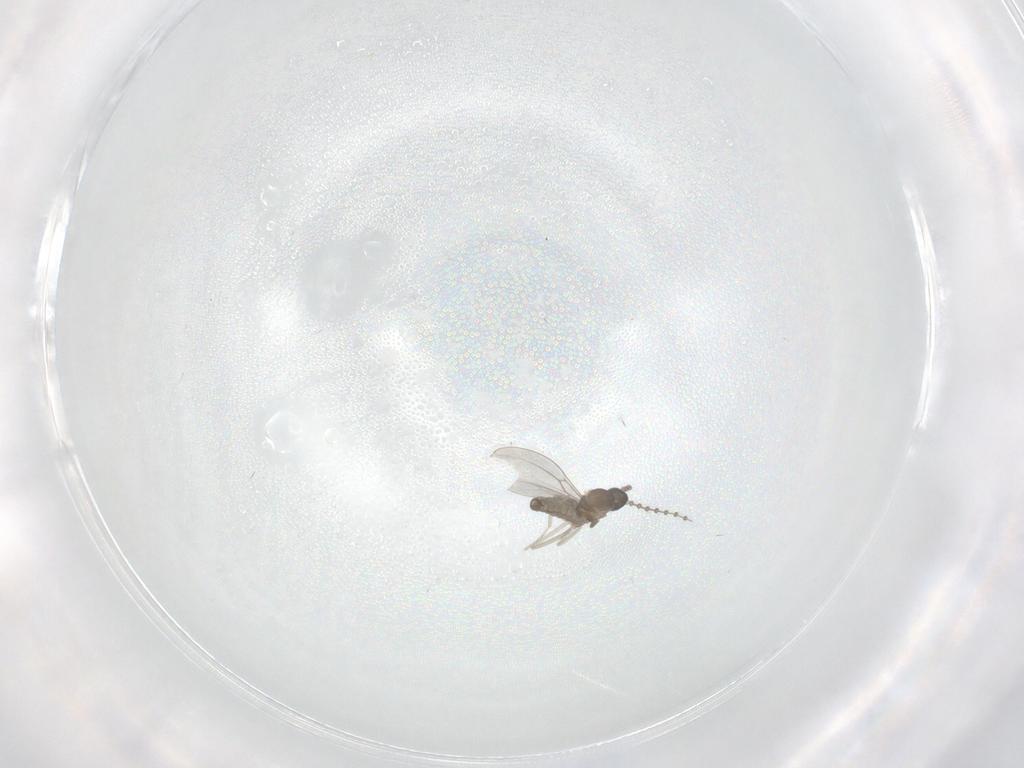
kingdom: Animalia
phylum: Arthropoda
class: Insecta
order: Diptera
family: Cecidomyiidae
